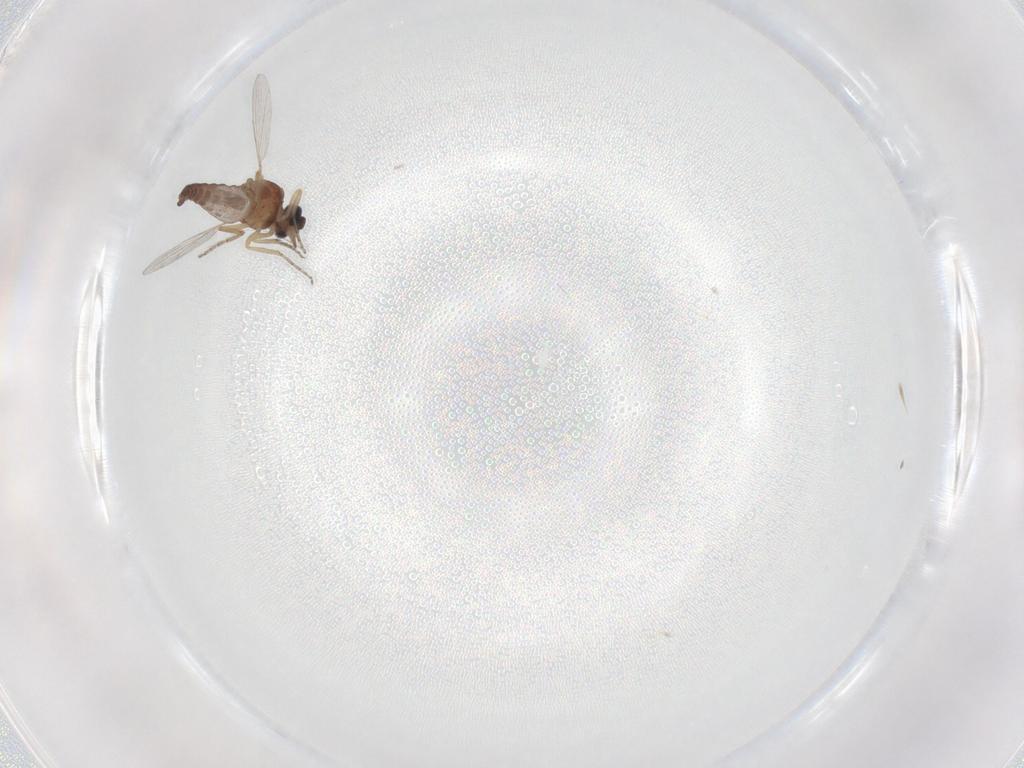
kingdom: Animalia
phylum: Arthropoda
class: Insecta
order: Diptera
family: Ceratopogonidae
